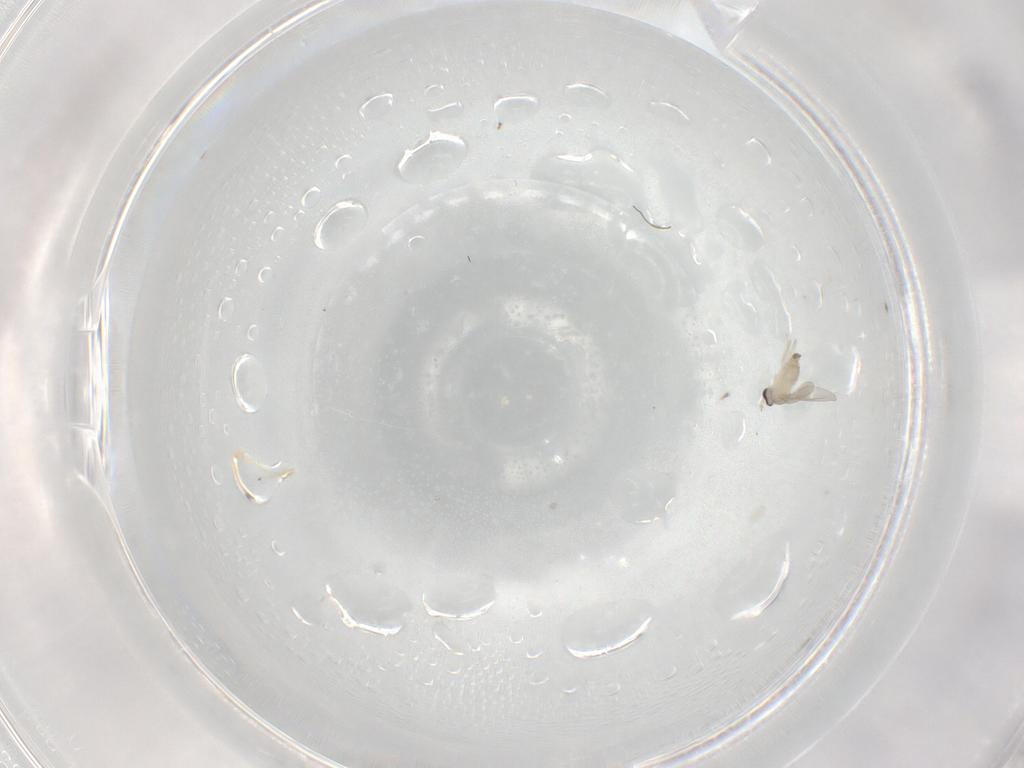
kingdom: Animalia
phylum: Arthropoda
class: Insecta
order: Diptera
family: Cecidomyiidae
